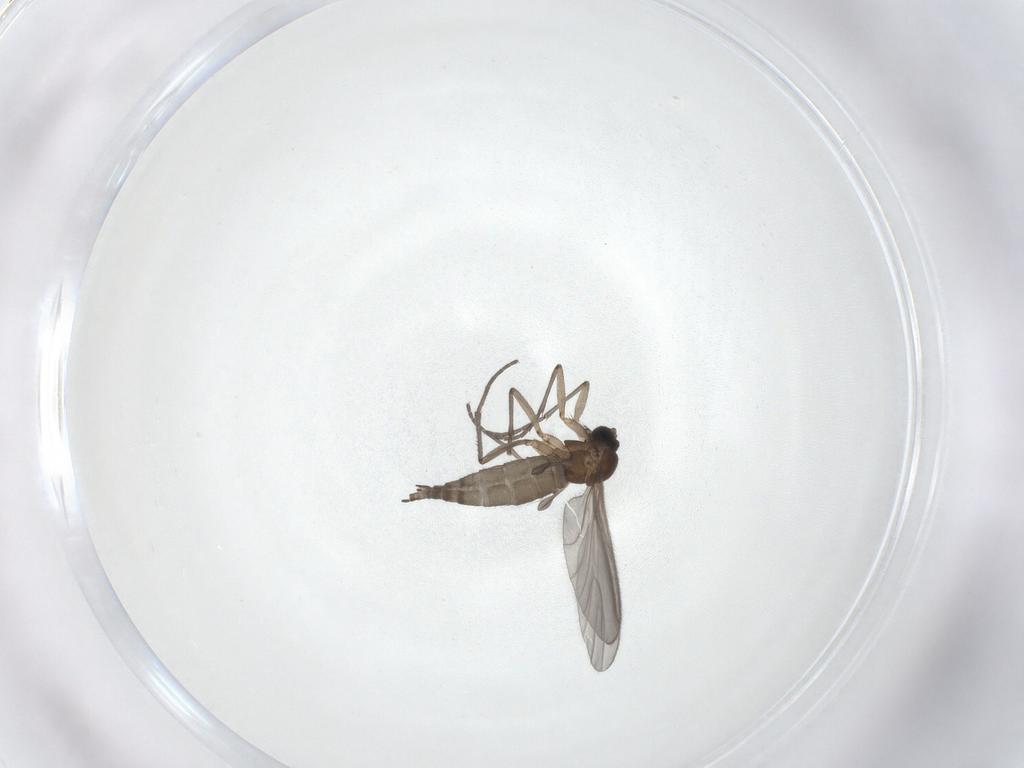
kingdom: Animalia
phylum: Arthropoda
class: Insecta
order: Diptera
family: Sciaridae
